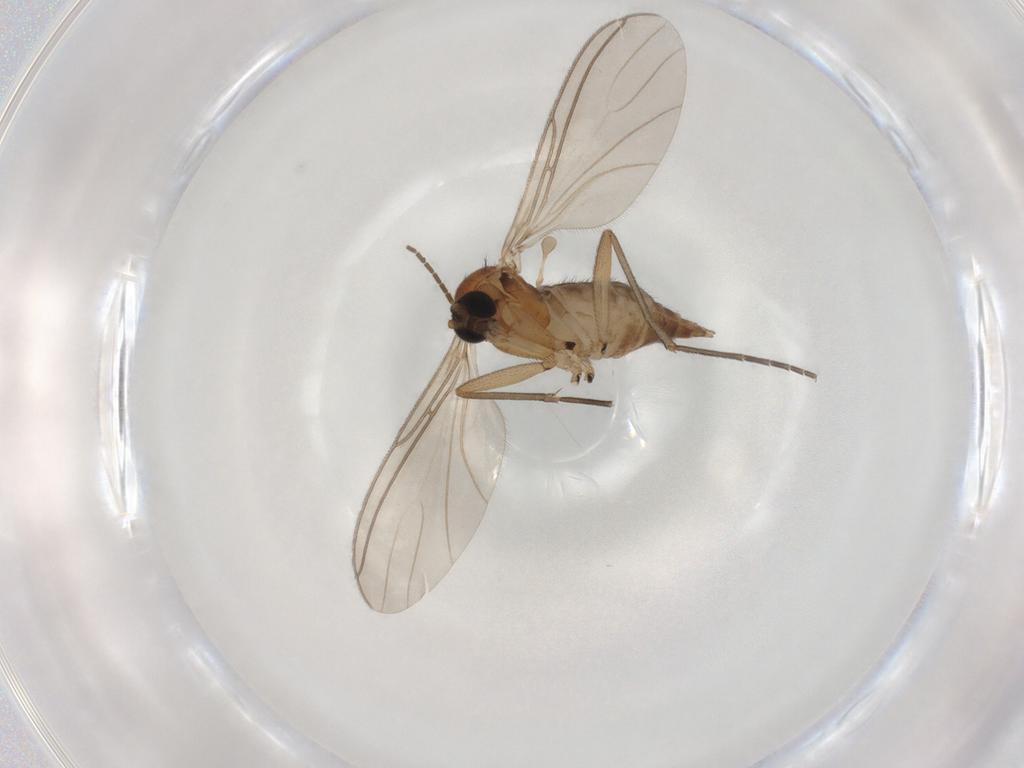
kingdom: Animalia
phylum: Arthropoda
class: Insecta
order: Diptera
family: Sciaridae
